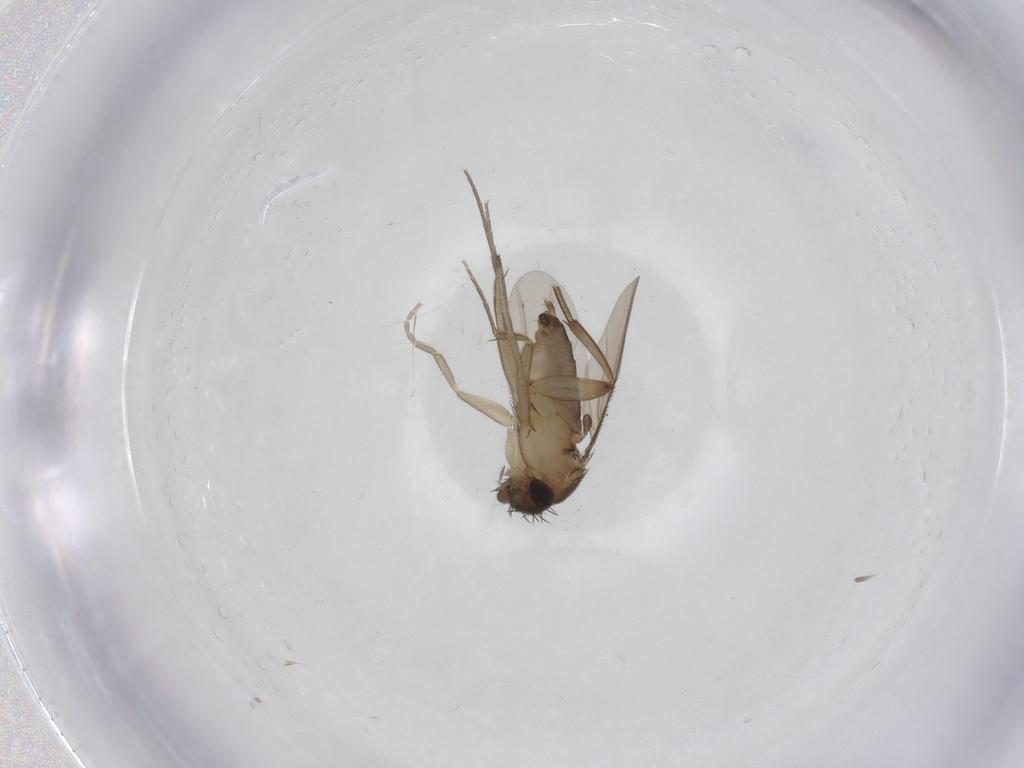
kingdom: Animalia
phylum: Arthropoda
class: Insecta
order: Diptera
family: Phoridae
